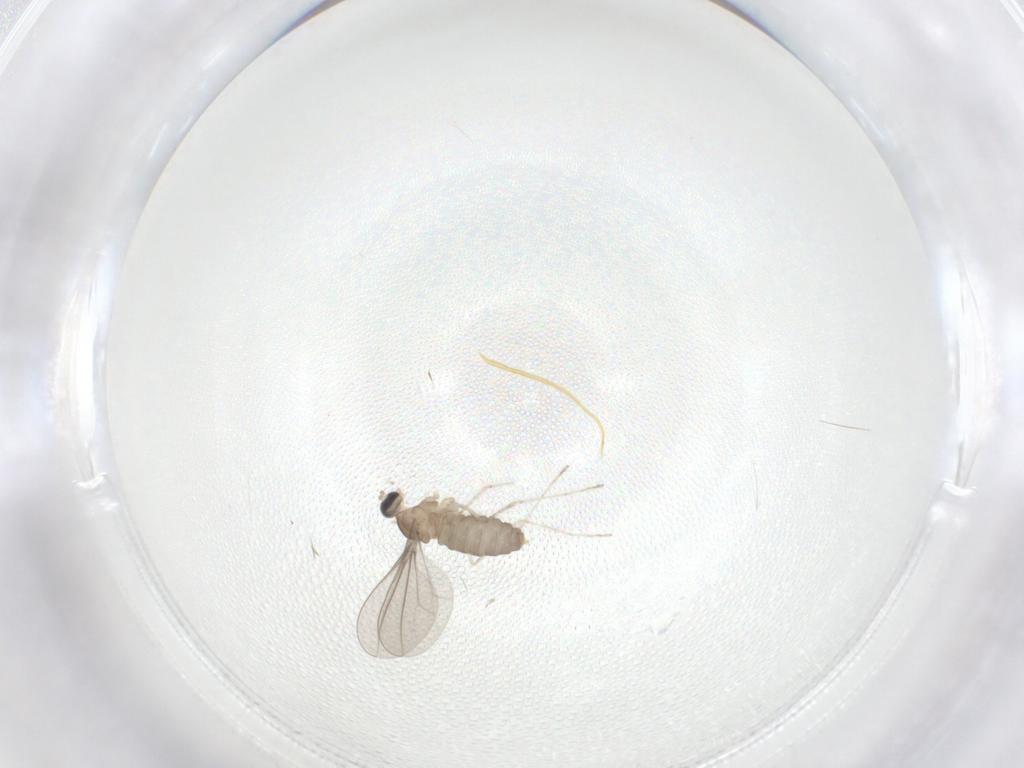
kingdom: Animalia
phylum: Arthropoda
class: Insecta
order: Diptera
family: Cecidomyiidae
